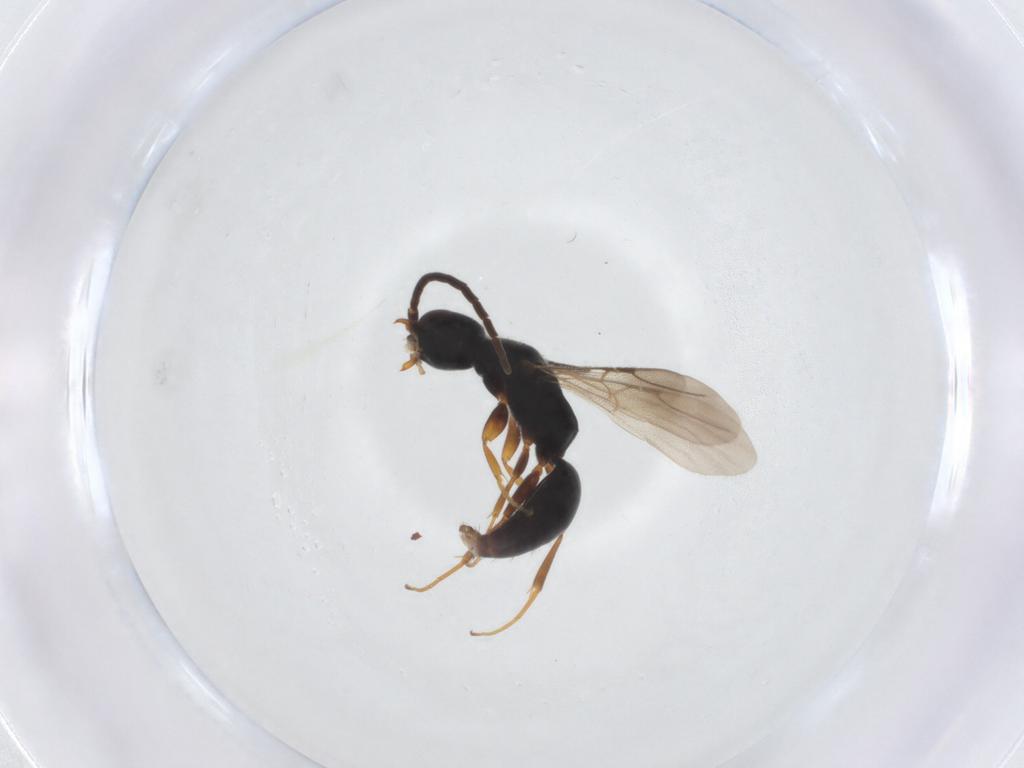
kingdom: Animalia
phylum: Arthropoda
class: Insecta
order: Hymenoptera
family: Bethylidae
